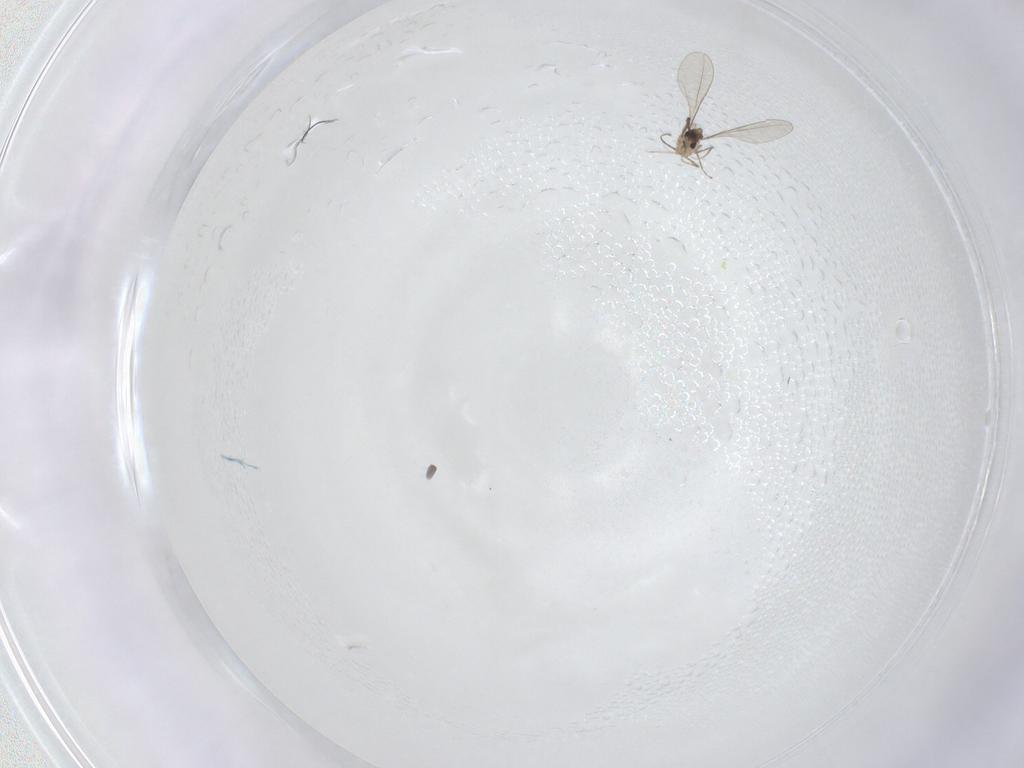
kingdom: Animalia
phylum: Arthropoda
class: Insecta
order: Diptera
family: Cecidomyiidae
